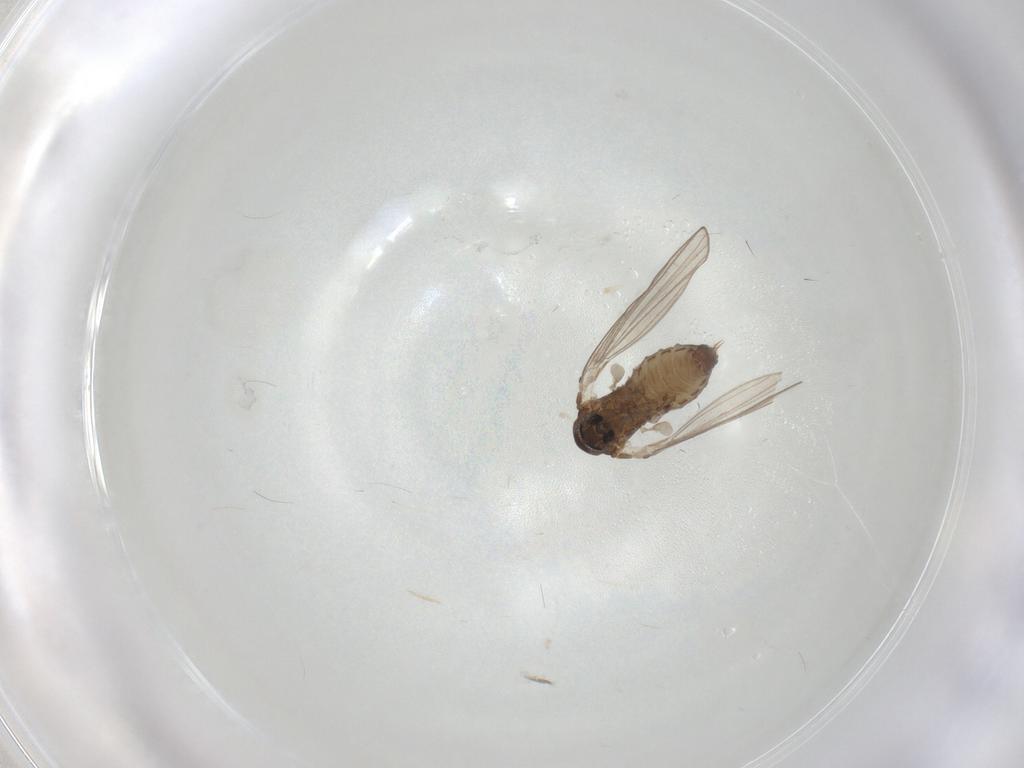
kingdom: Animalia
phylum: Arthropoda
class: Insecta
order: Diptera
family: Psychodidae
